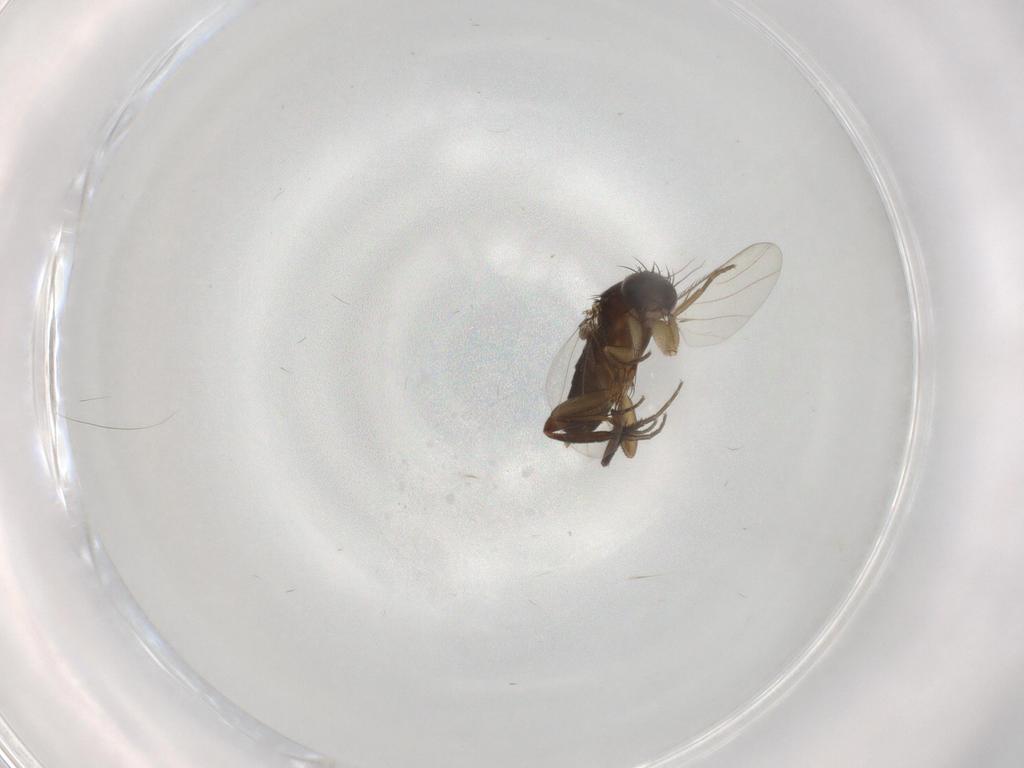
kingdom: Animalia
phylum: Arthropoda
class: Insecta
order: Diptera
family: Phoridae
